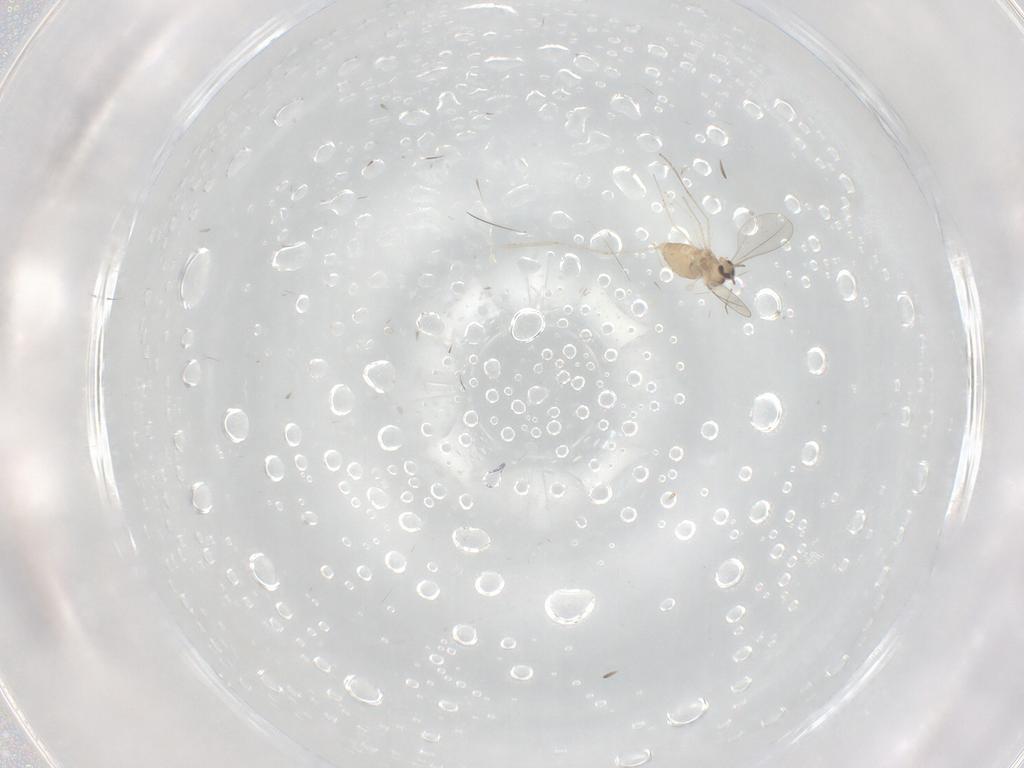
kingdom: Animalia
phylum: Arthropoda
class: Insecta
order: Diptera
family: Cecidomyiidae
